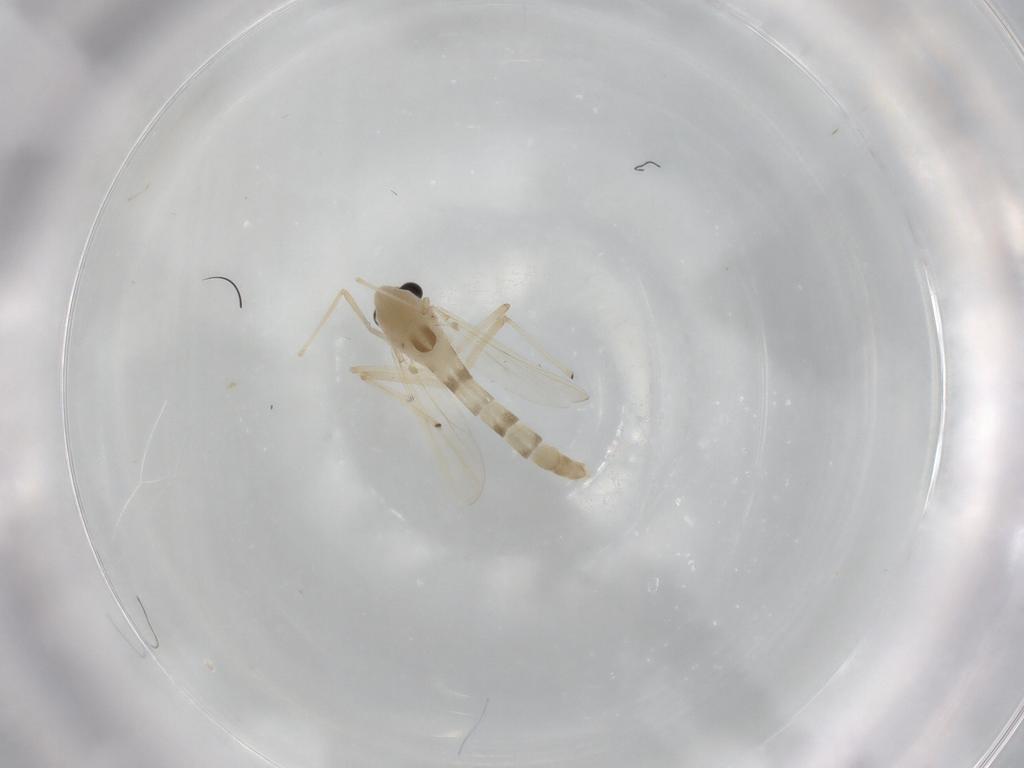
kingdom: Animalia
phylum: Arthropoda
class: Insecta
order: Diptera
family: Chironomidae
